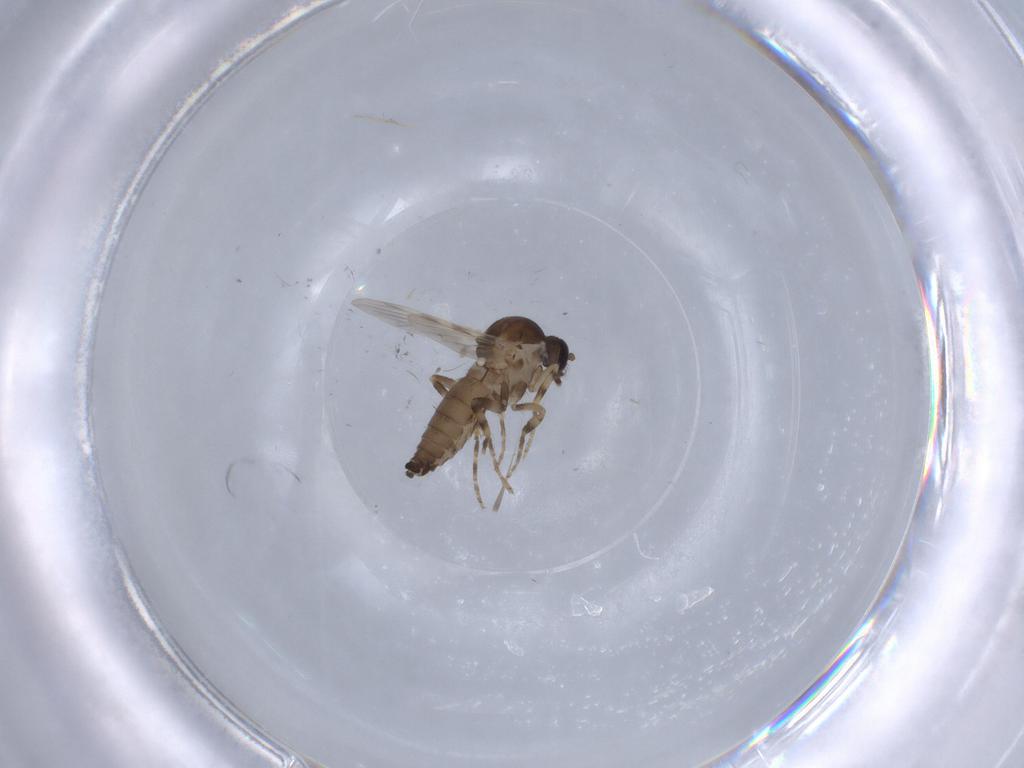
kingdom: Animalia
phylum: Arthropoda
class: Insecta
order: Diptera
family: Ceratopogonidae
